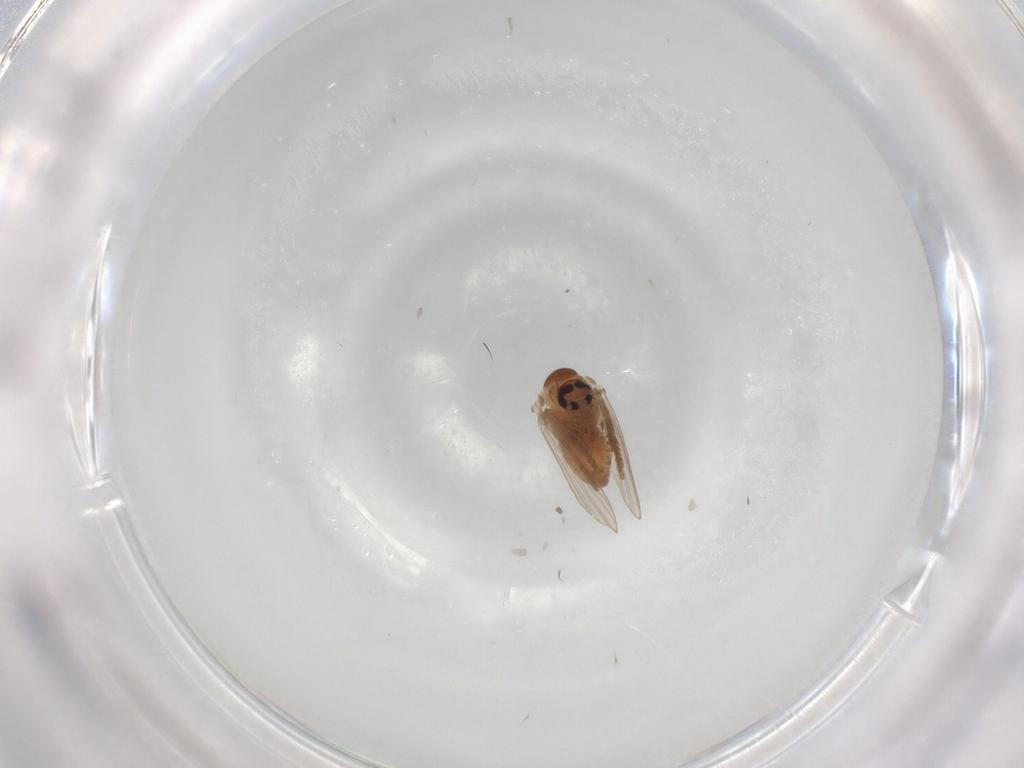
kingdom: Animalia
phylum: Arthropoda
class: Insecta
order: Diptera
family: Psychodidae
